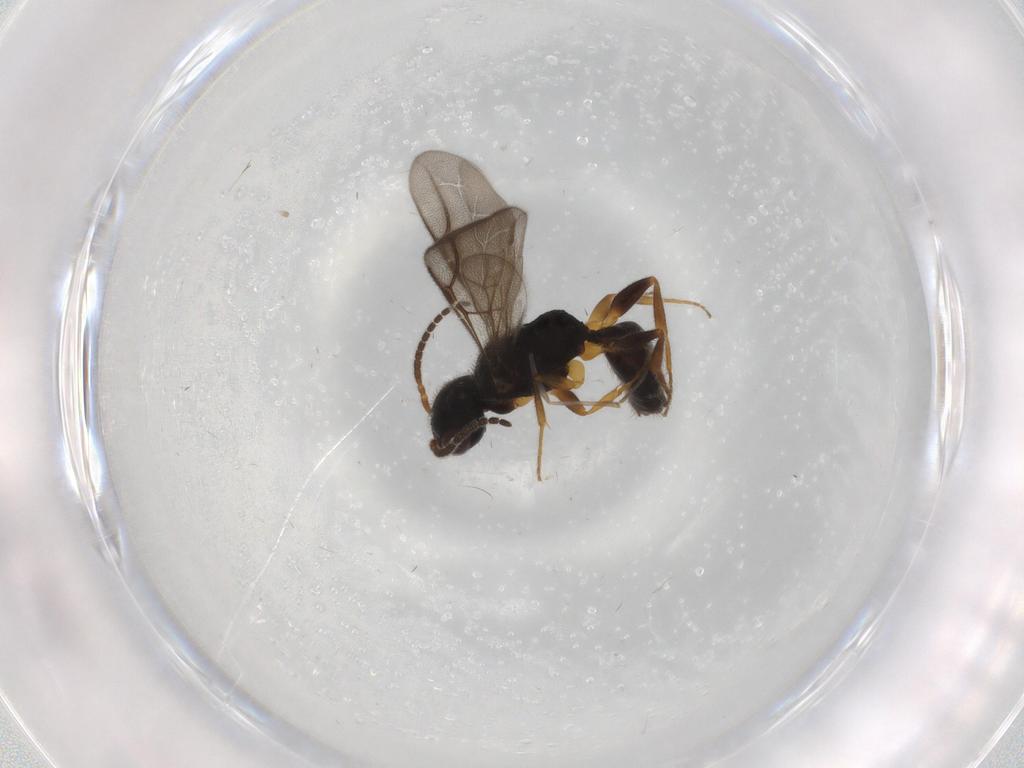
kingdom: Animalia
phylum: Arthropoda
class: Insecta
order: Hymenoptera
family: Bethylidae
